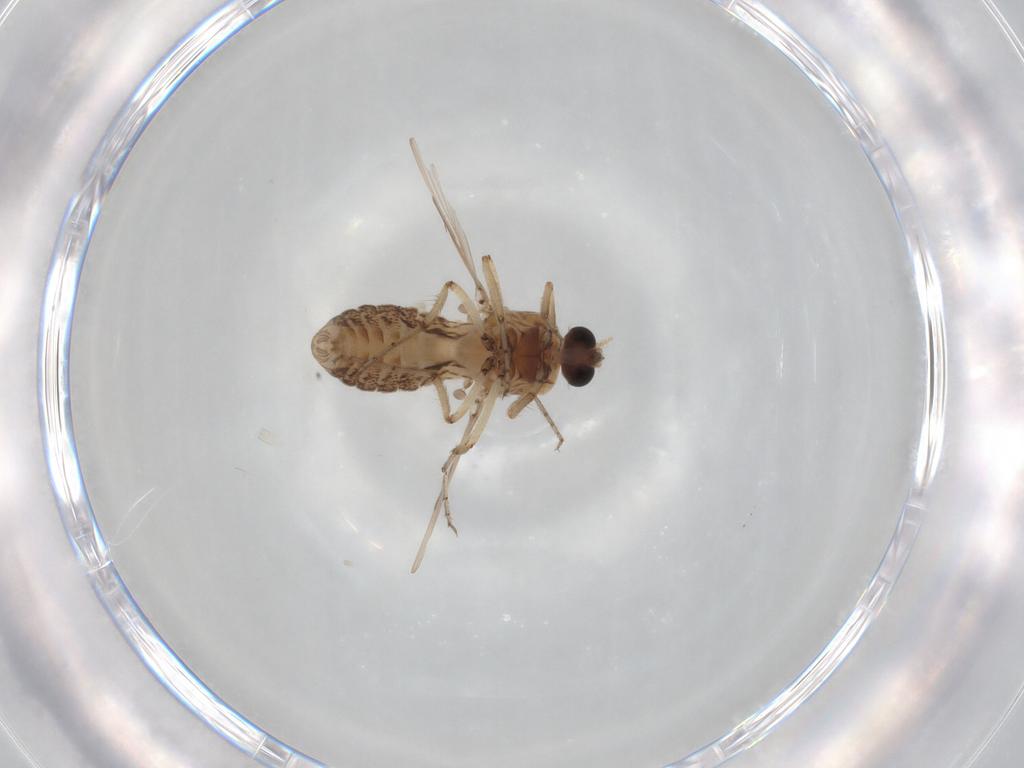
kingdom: Animalia
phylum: Arthropoda
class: Insecta
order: Diptera
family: Ceratopogonidae
